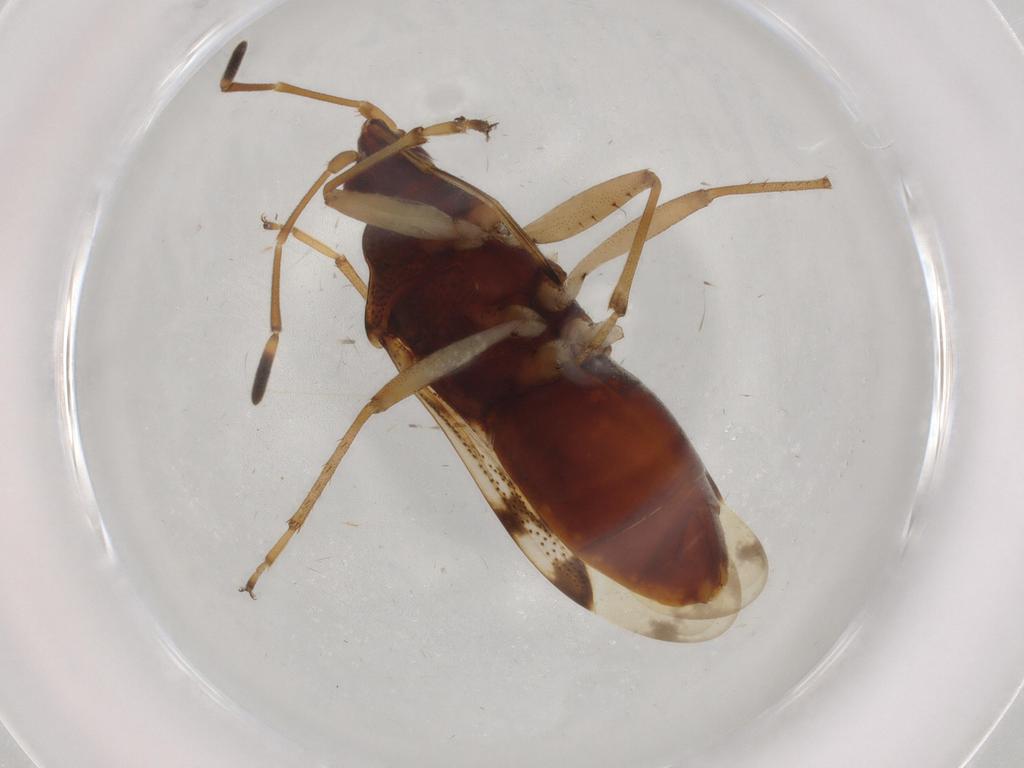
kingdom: Animalia
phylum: Arthropoda
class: Insecta
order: Hemiptera
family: Rhyparochromidae
